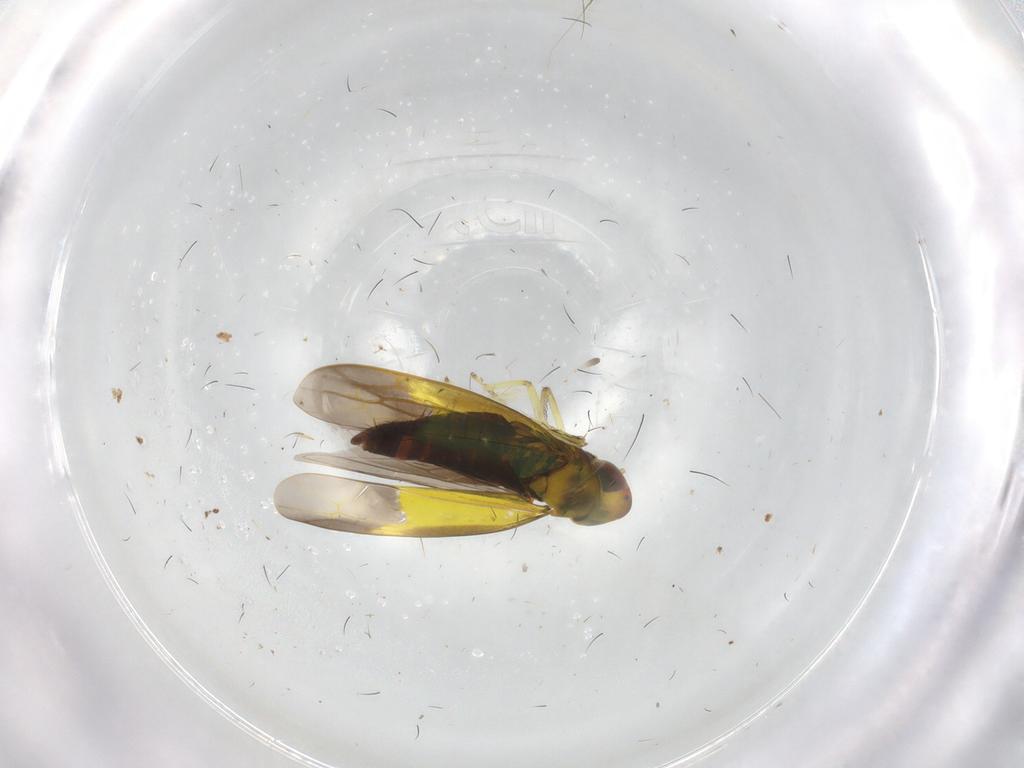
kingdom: Animalia
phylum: Arthropoda
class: Insecta
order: Hemiptera
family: Cicadellidae
